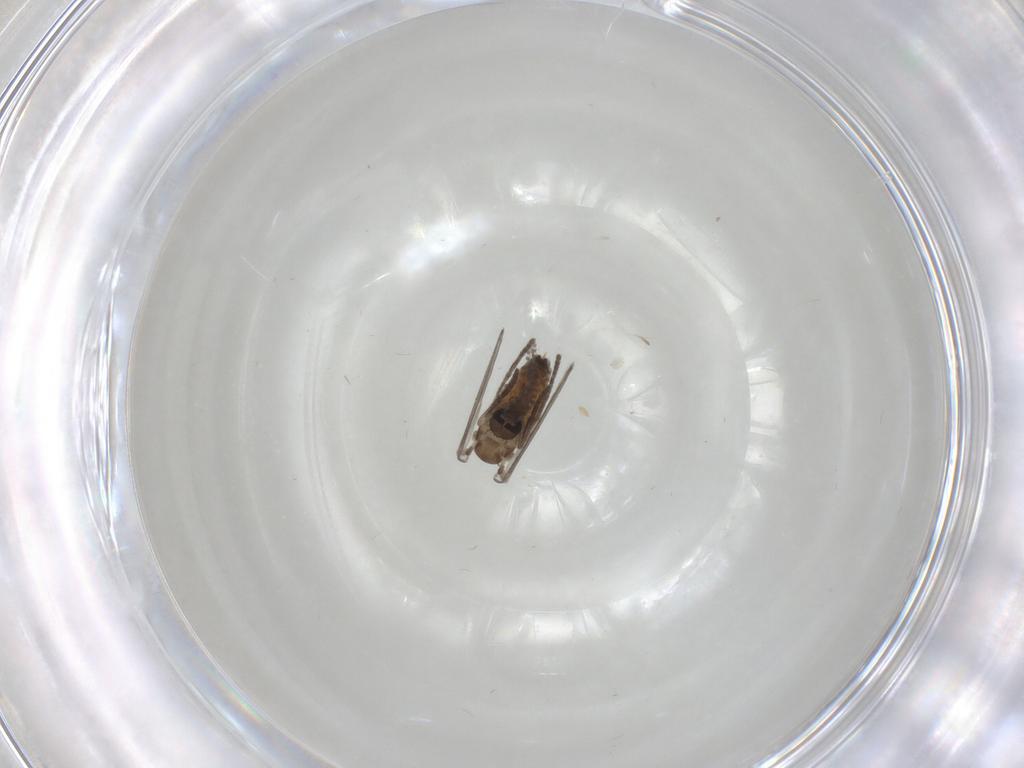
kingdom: Animalia
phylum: Arthropoda
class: Insecta
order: Diptera
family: Psychodidae
